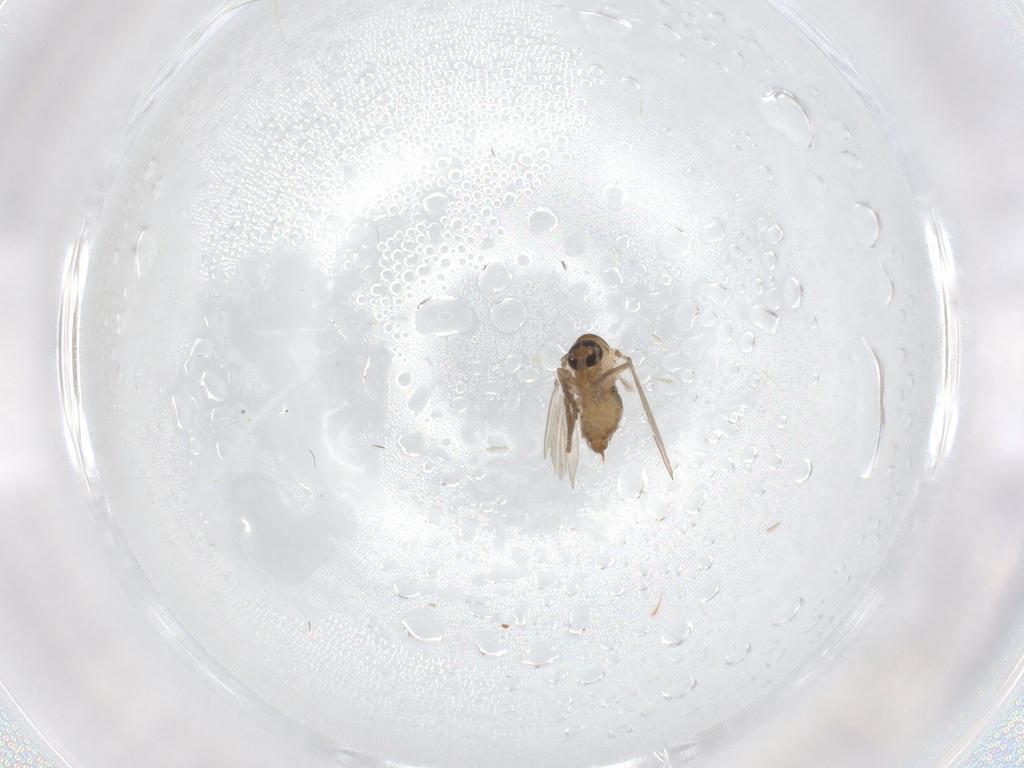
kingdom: Animalia
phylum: Arthropoda
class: Insecta
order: Diptera
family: Psychodidae
